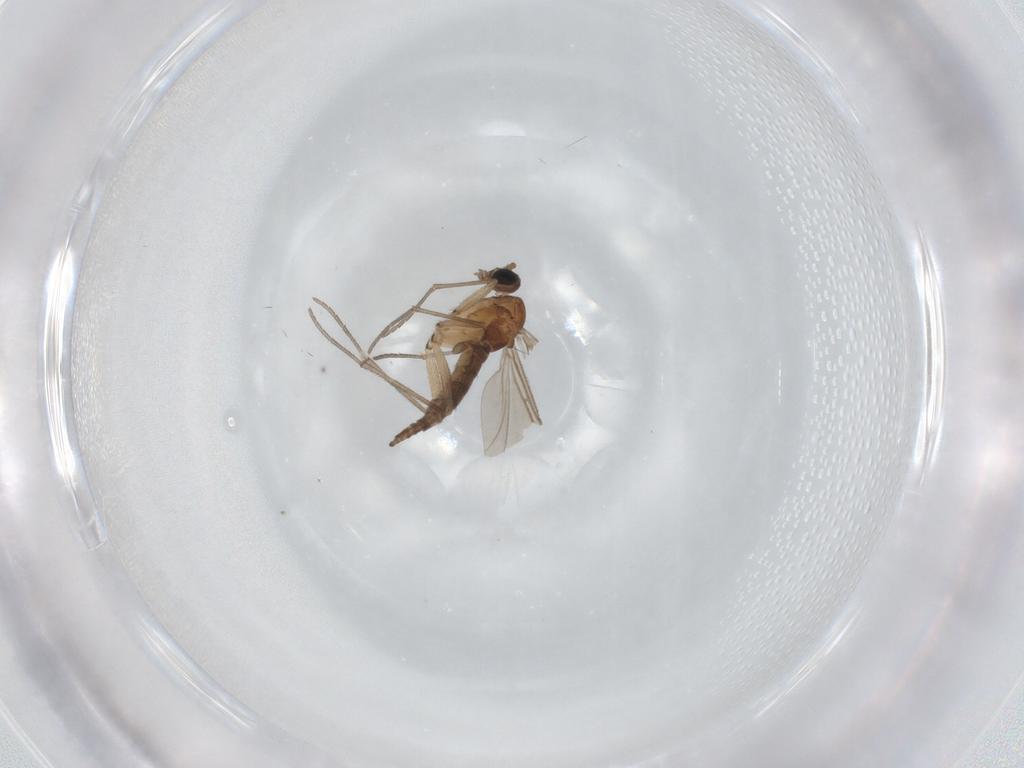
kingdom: Animalia
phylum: Arthropoda
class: Insecta
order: Diptera
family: Sciaridae
